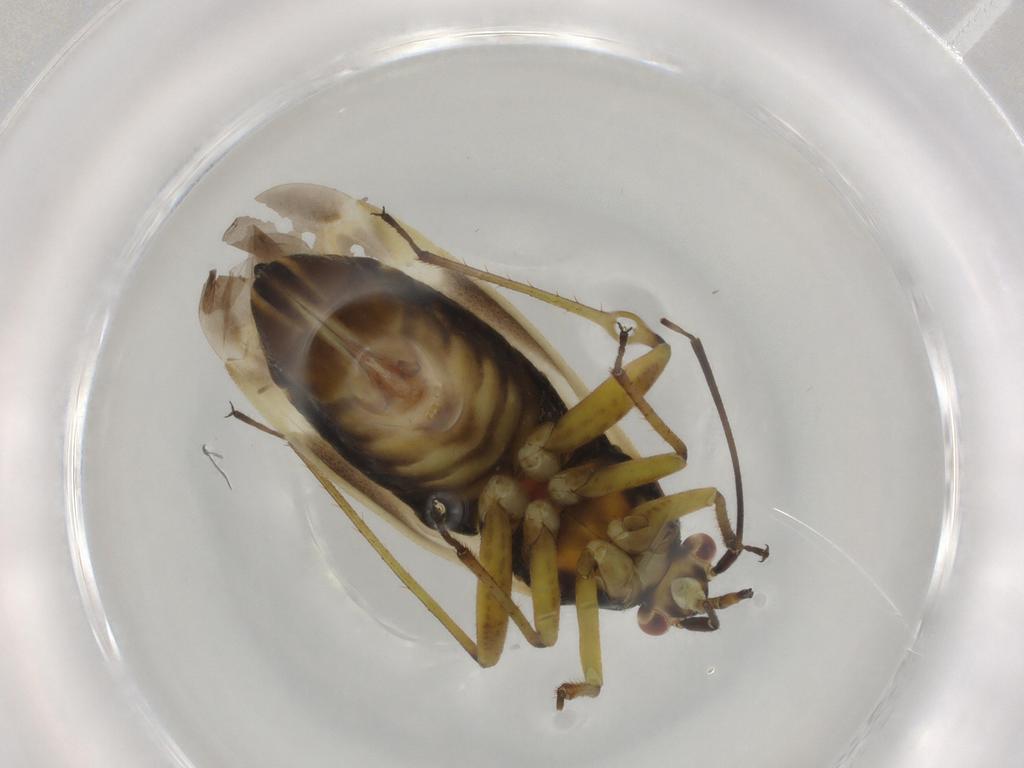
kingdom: Animalia
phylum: Arthropoda
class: Insecta
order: Hemiptera
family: Miridae
